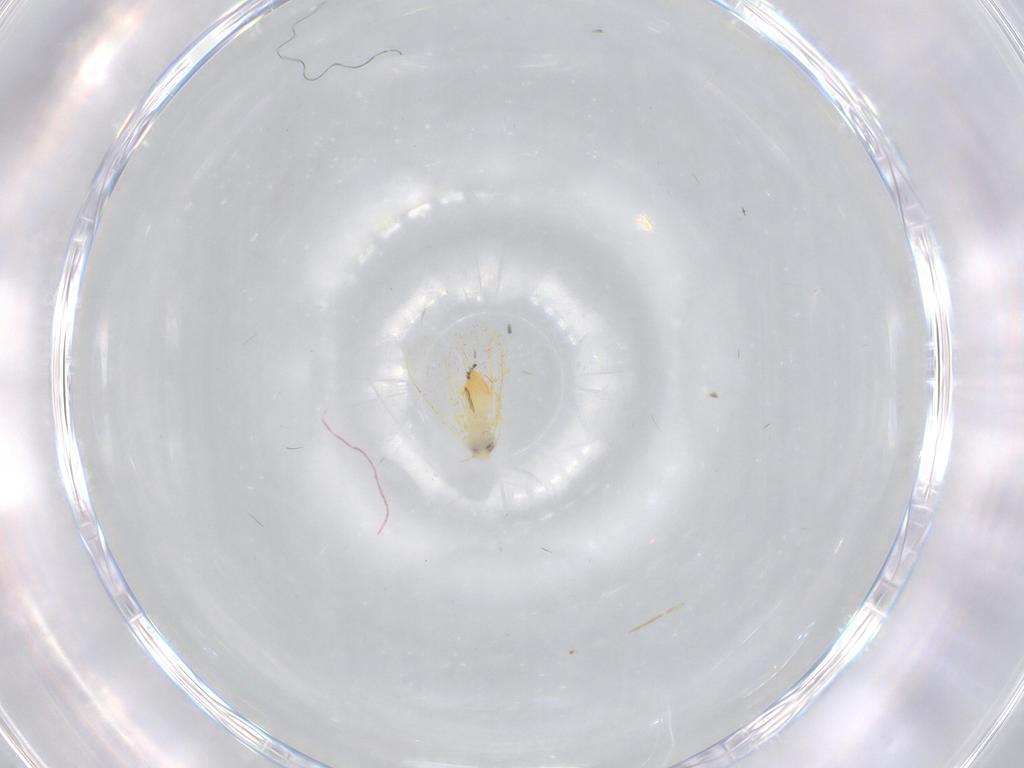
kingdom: Animalia
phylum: Arthropoda
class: Insecta
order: Hemiptera
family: Aleyrodidae
